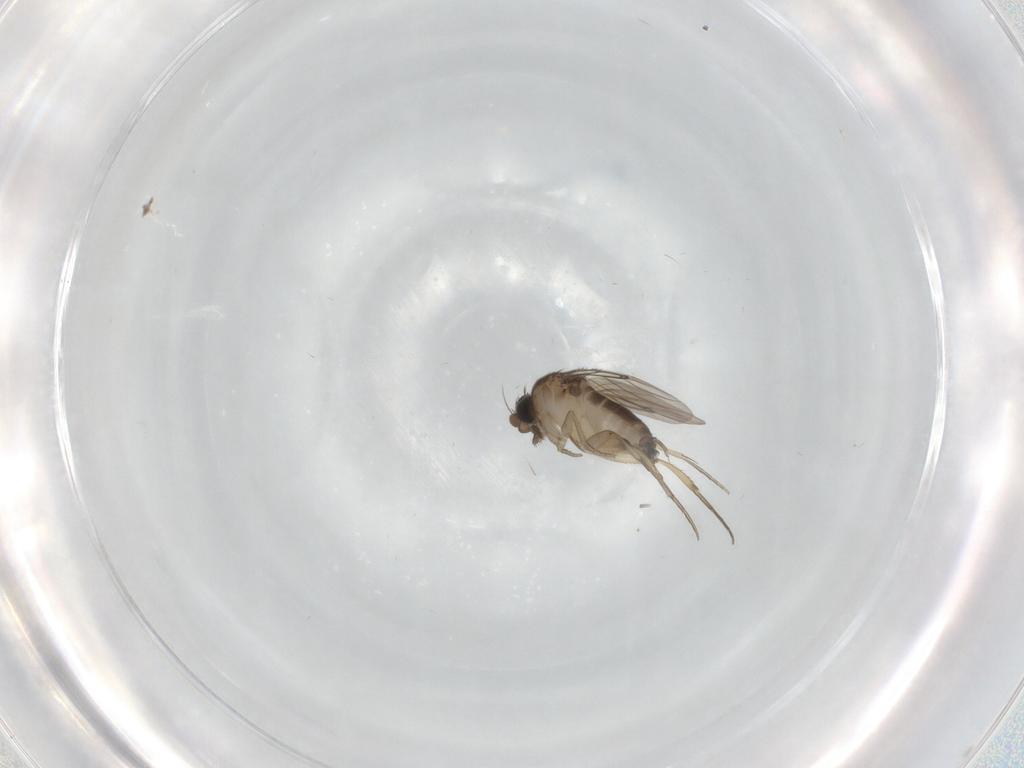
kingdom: Animalia
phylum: Arthropoda
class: Insecta
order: Diptera
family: Phoridae
